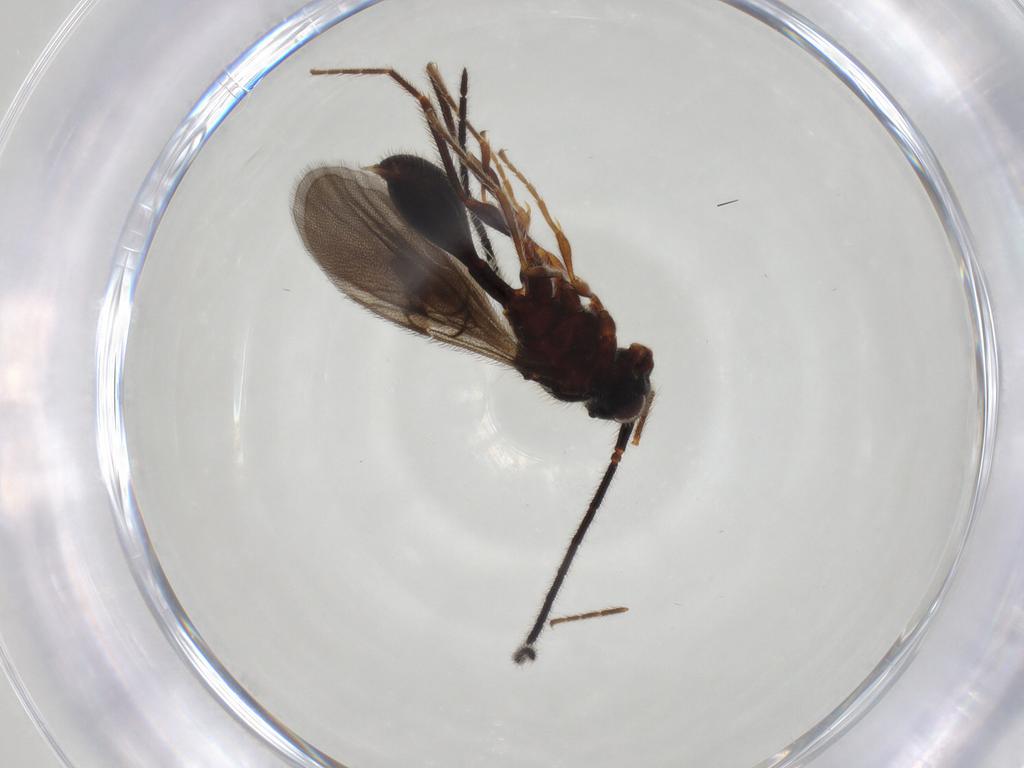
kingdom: Animalia
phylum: Arthropoda
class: Insecta
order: Hymenoptera
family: Diapriidae
